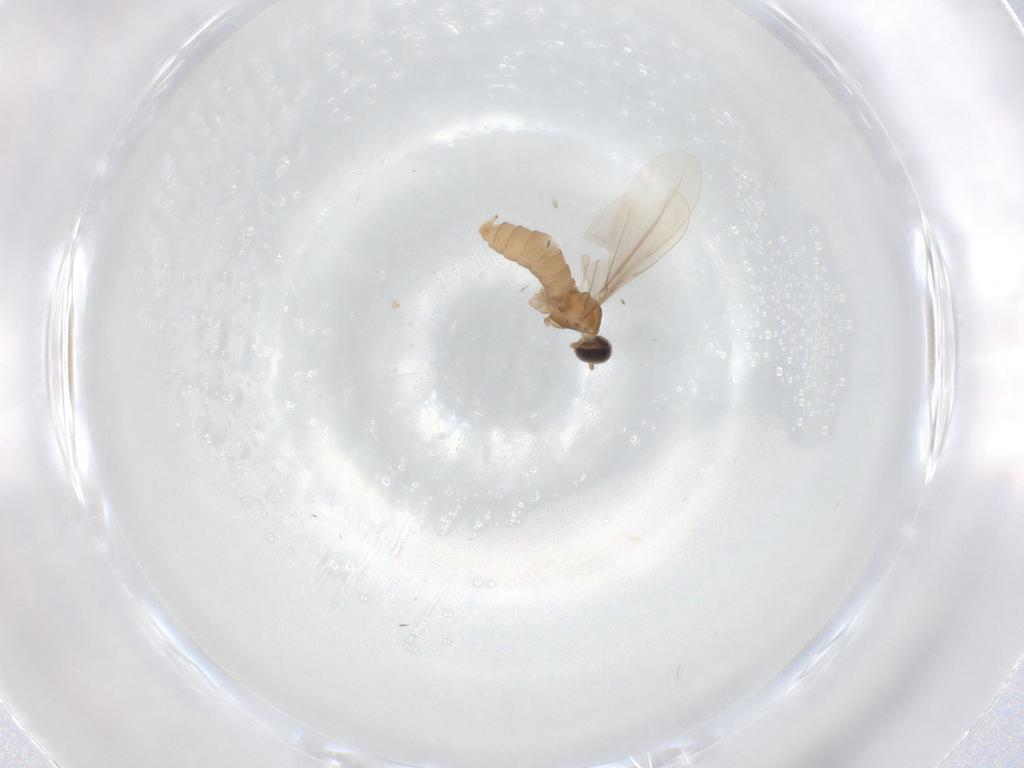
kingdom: Animalia
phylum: Arthropoda
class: Insecta
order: Diptera
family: Cecidomyiidae
